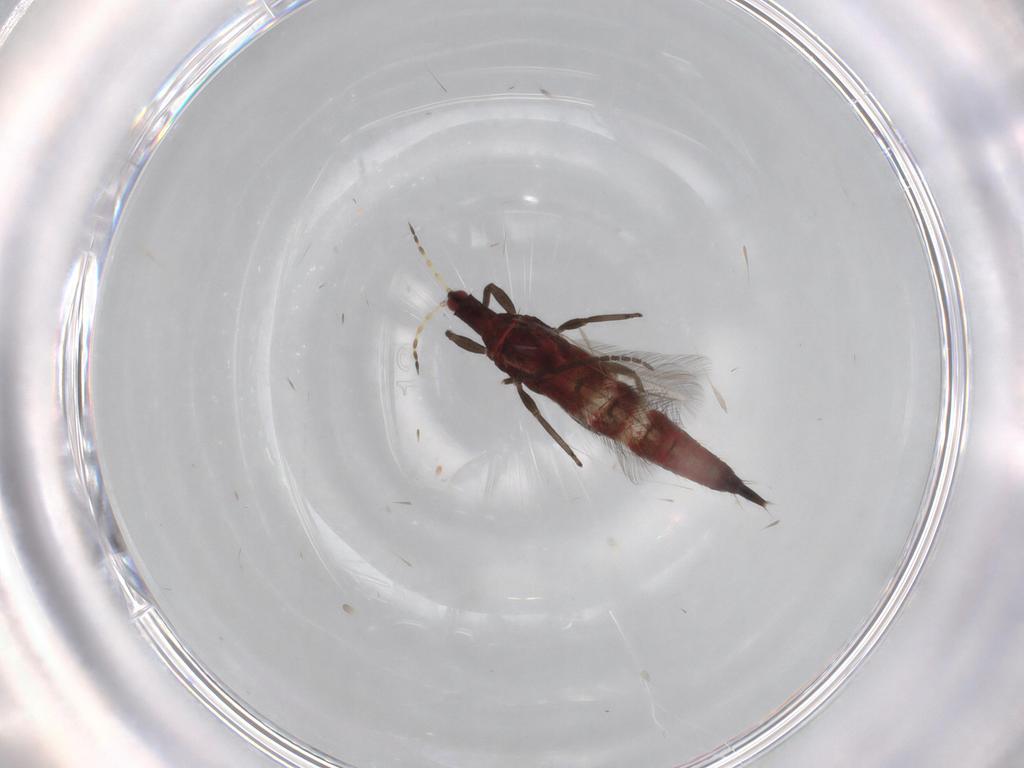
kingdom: Animalia
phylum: Arthropoda
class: Insecta
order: Thysanoptera
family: Phlaeothripidae
